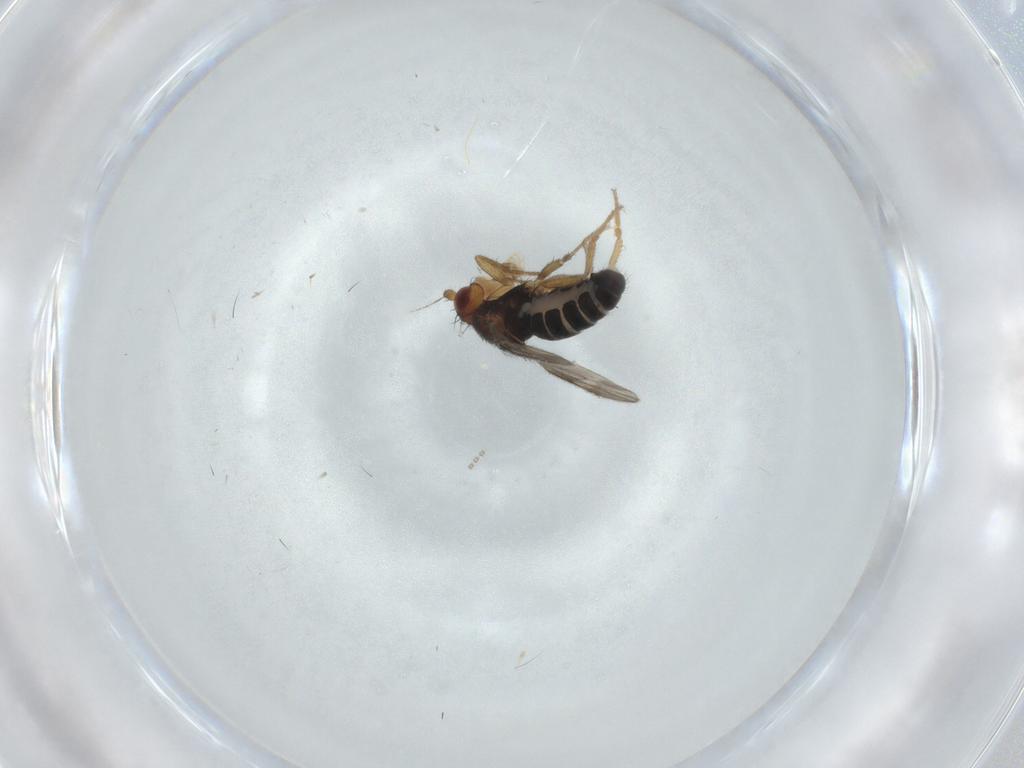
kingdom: Animalia
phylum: Arthropoda
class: Insecta
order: Diptera
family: Sphaeroceridae
